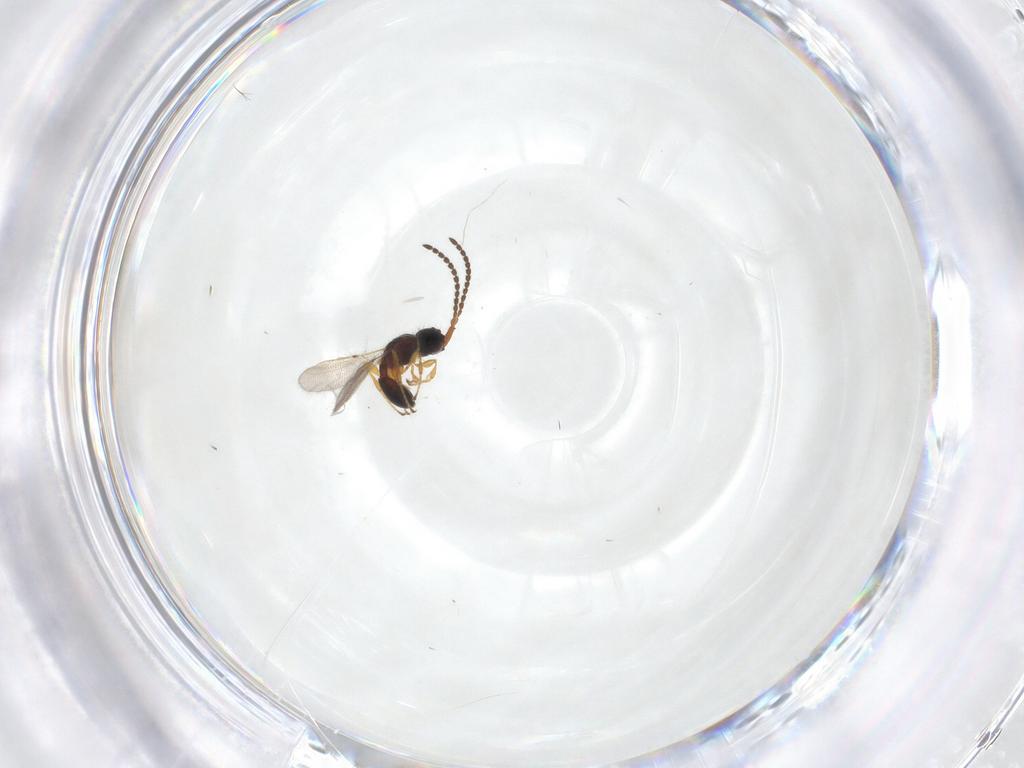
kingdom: Animalia
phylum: Arthropoda
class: Insecta
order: Hymenoptera
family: Diapriidae
